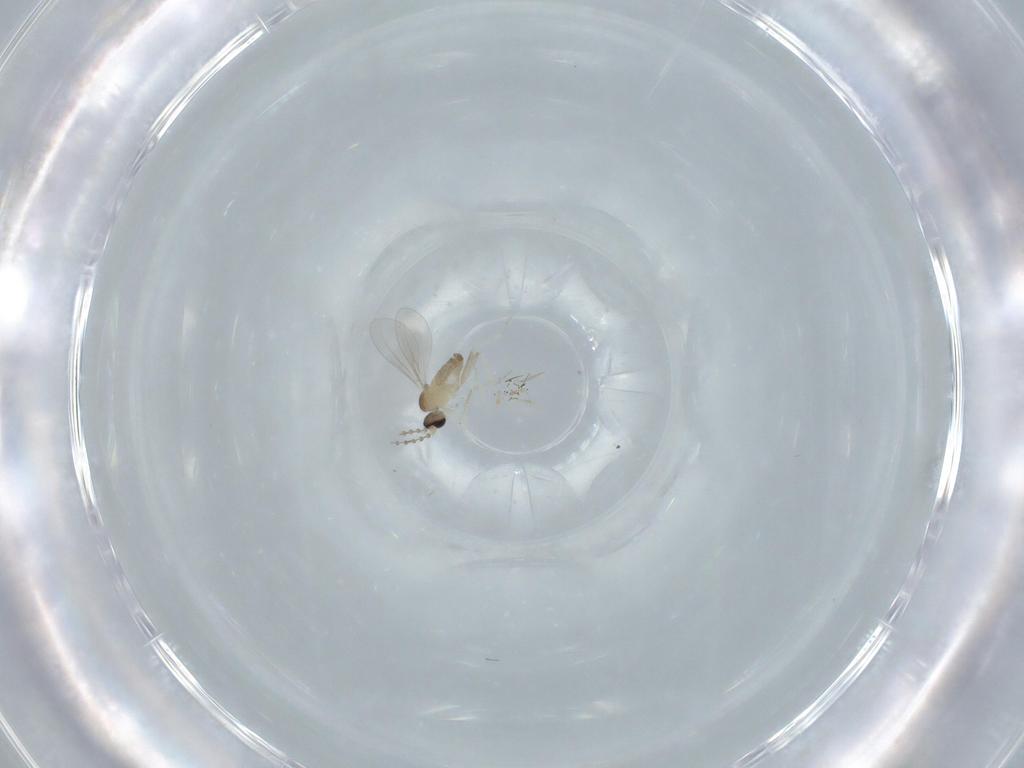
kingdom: Animalia
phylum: Arthropoda
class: Insecta
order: Diptera
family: Cecidomyiidae
